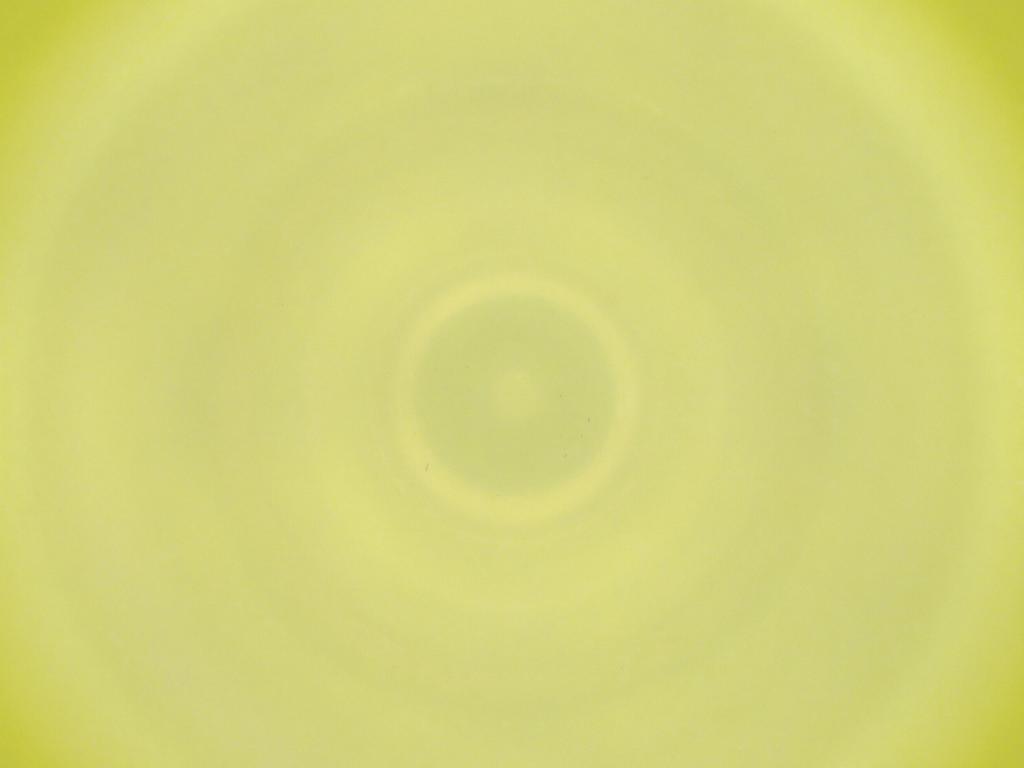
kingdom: Animalia
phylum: Arthropoda
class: Insecta
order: Diptera
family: Cecidomyiidae
